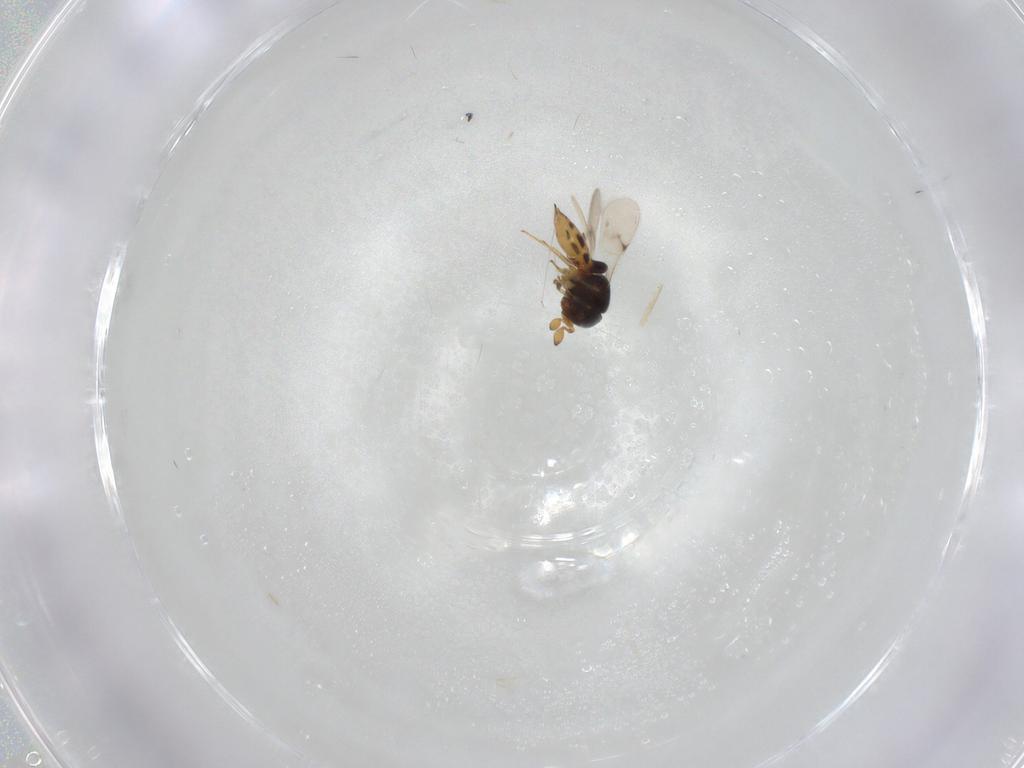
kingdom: Animalia
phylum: Arthropoda
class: Insecta
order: Hymenoptera
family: Scelionidae
